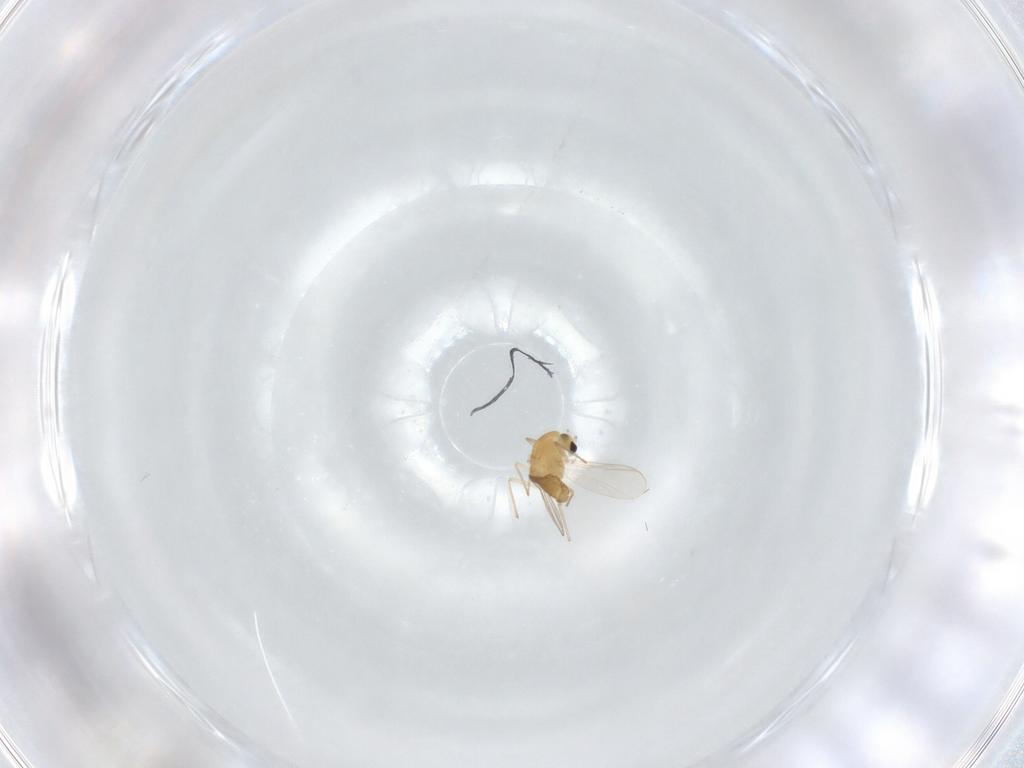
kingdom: Animalia
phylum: Arthropoda
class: Insecta
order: Diptera
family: Chironomidae
